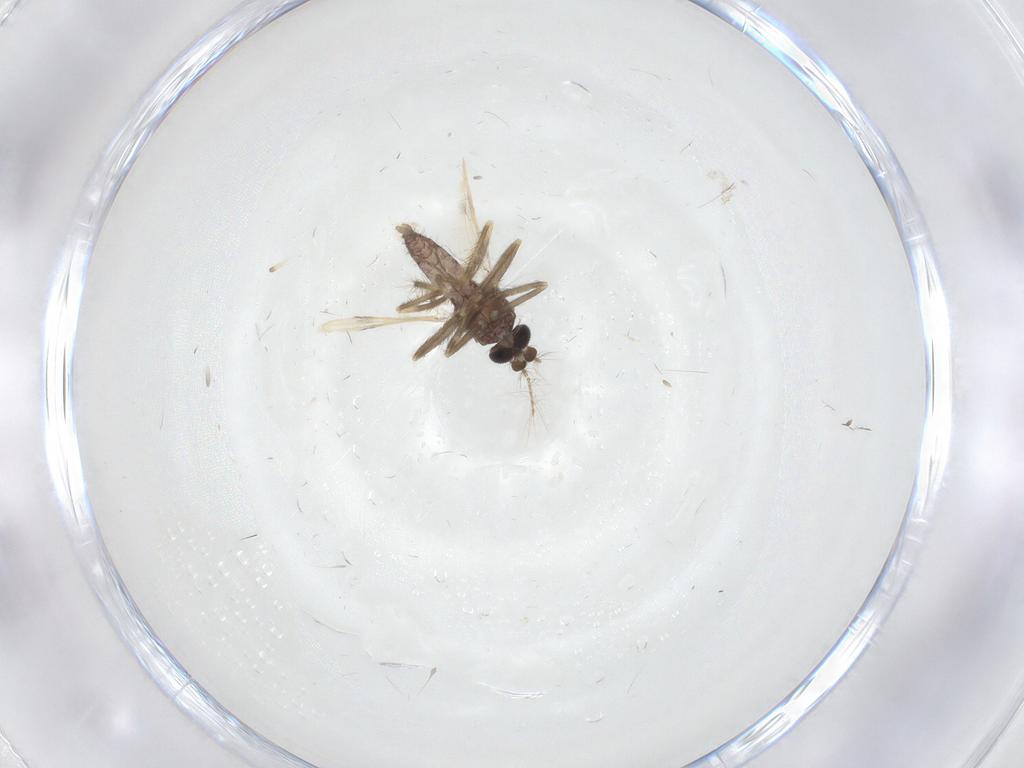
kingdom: Animalia
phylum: Arthropoda
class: Insecta
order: Diptera
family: Corethrellidae
